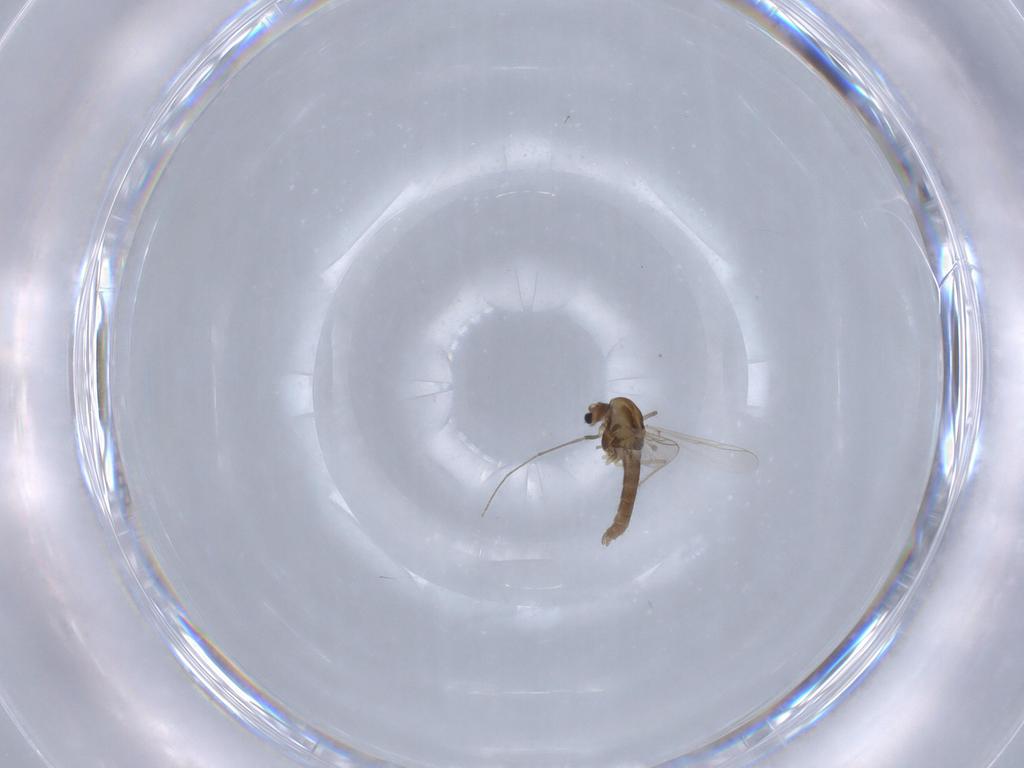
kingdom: Animalia
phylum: Arthropoda
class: Insecta
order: Diptera
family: Chironomidae
